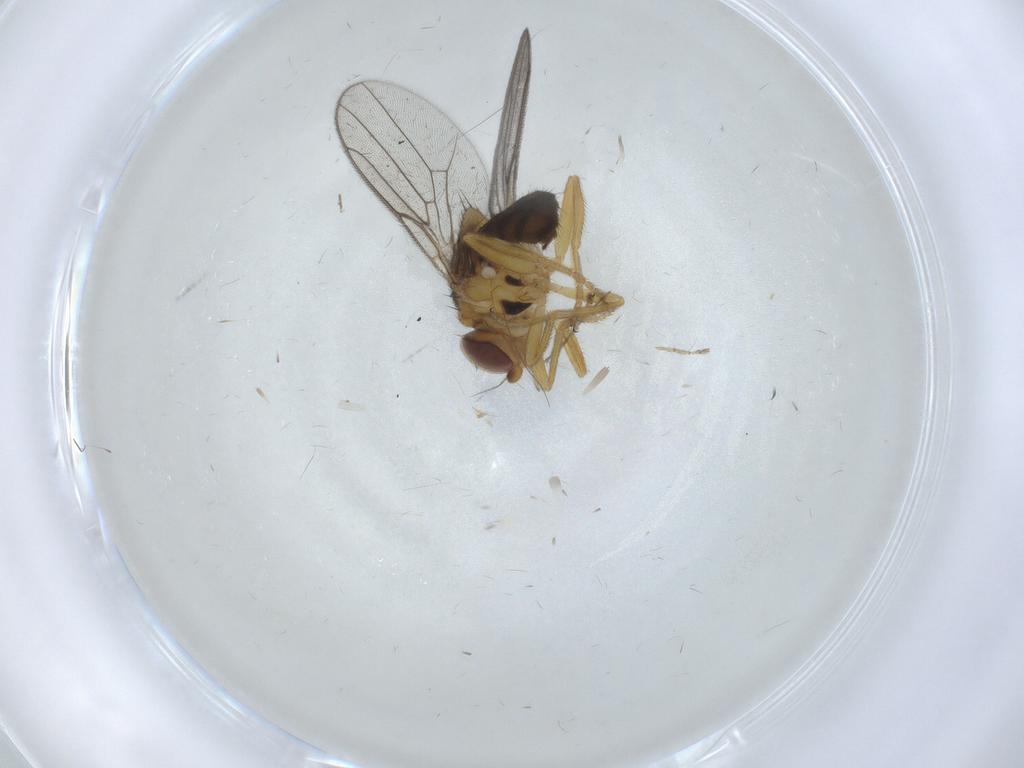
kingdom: Animalia
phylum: Arthropoda
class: Insecta
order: Diptera
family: Chloropidae
